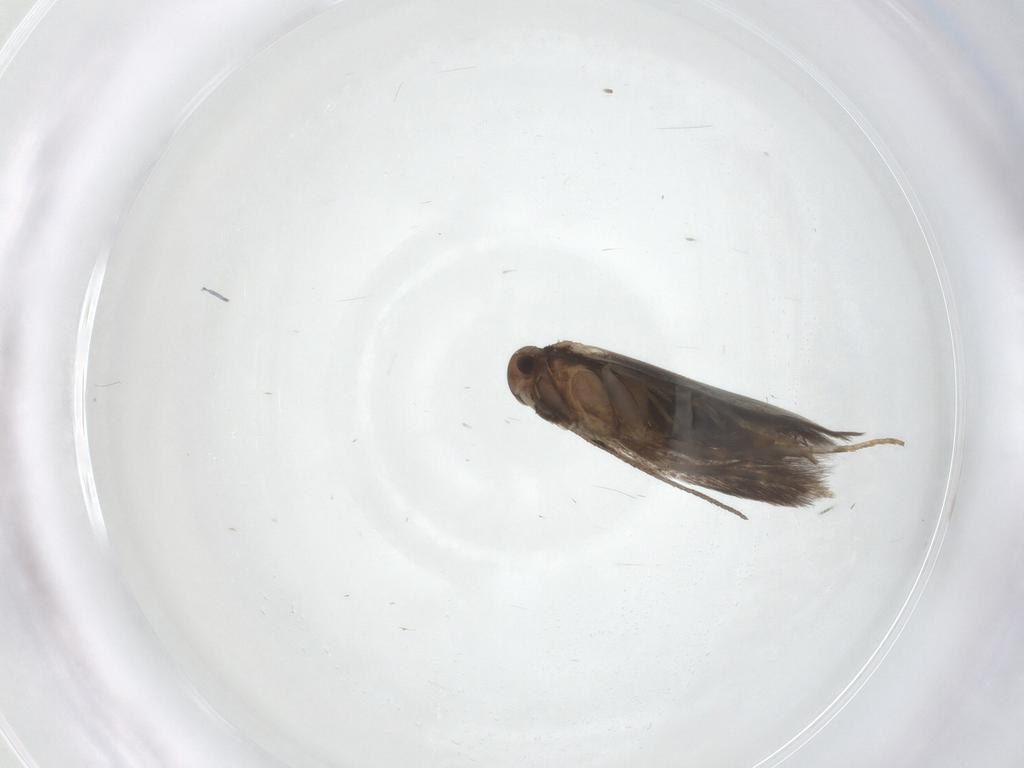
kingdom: Animalia
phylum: Arthropoda
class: Insecta
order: Lepidoptera
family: Elachistidae
